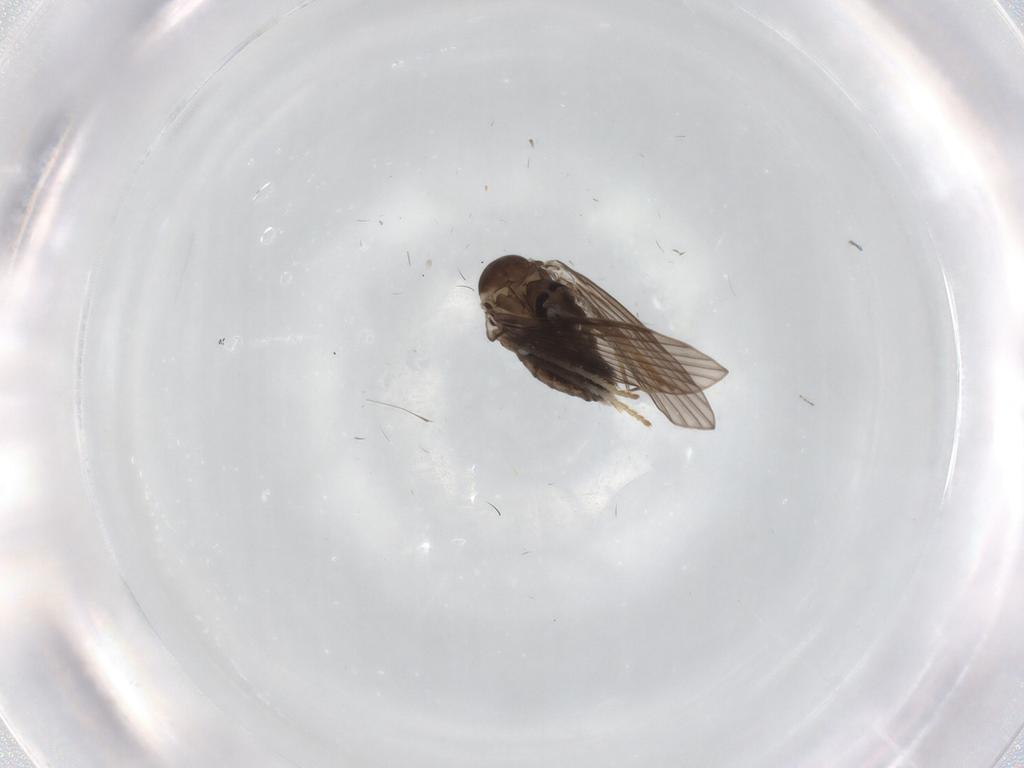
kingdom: Animalia
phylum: Arthropoda
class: Insecta
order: Diptera
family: Psychodidae
